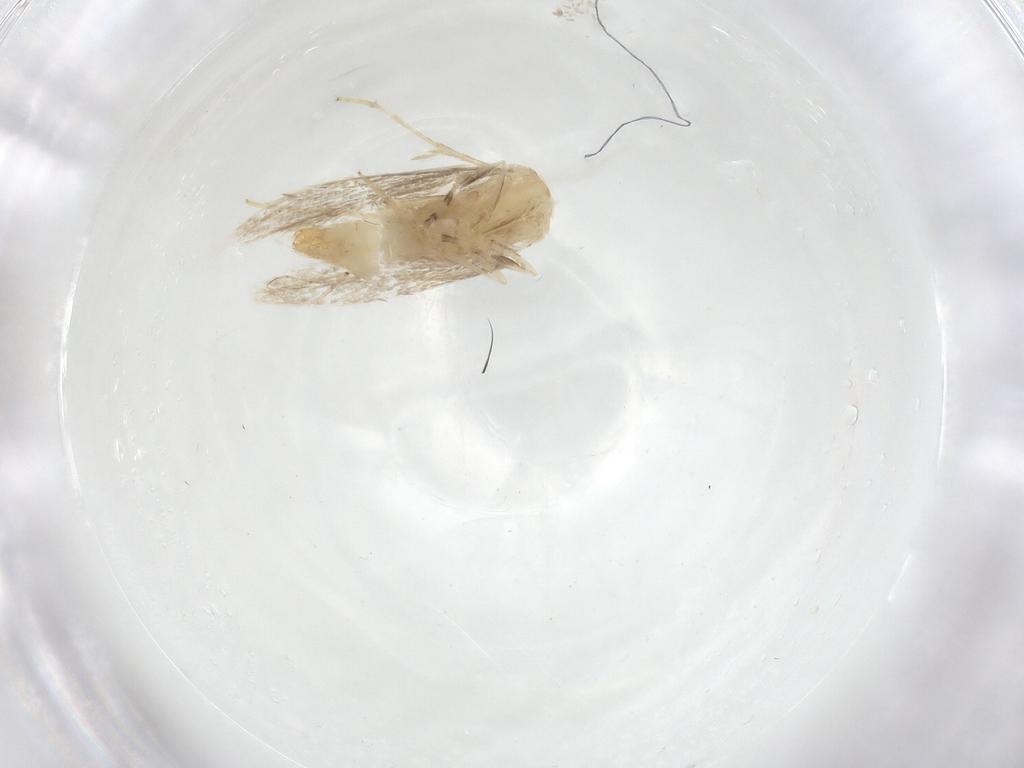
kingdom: Animalia
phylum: Arthropoda
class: Insecta
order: Lepidoptera
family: Gracillariidae
